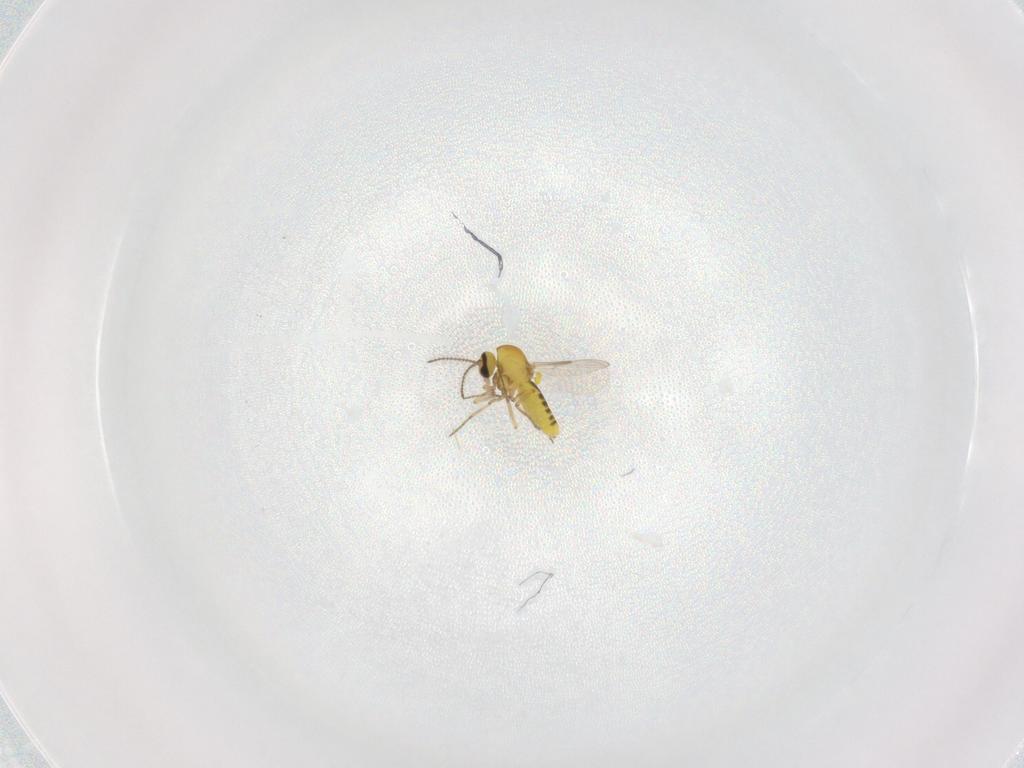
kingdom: Animalia
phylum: Arthropoda
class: Insecta
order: Diptera
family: Ceratopogonidae
